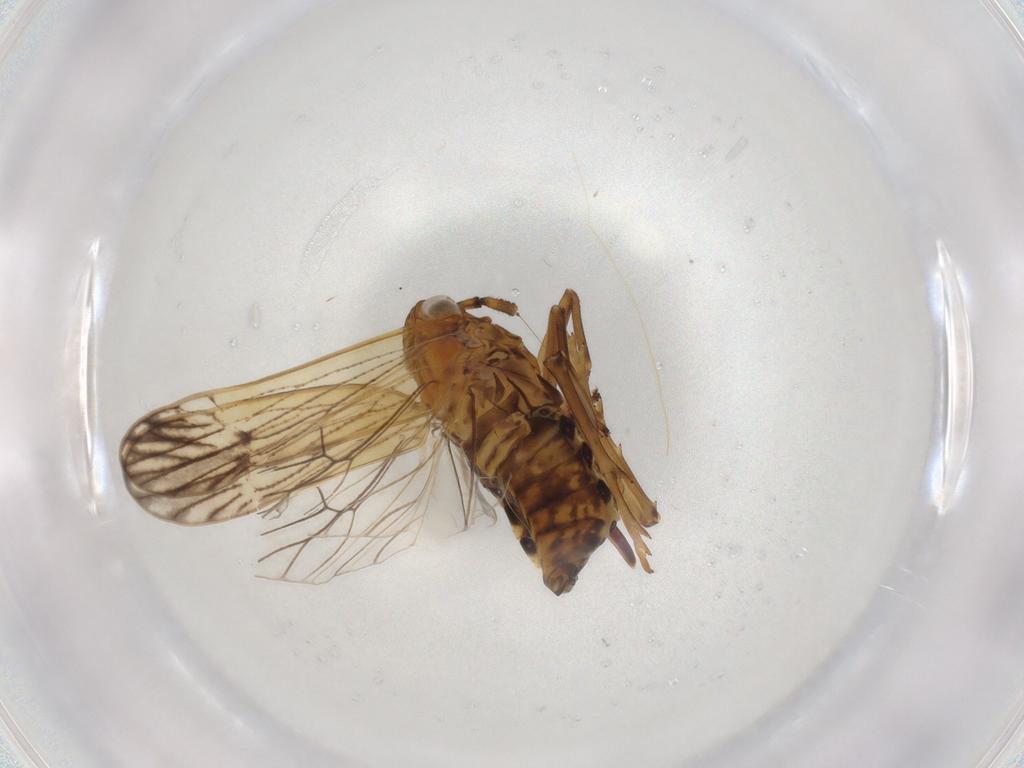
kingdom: Animalia
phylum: Arthropoda
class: Insecta
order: Hemiptera
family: Delphacidae
